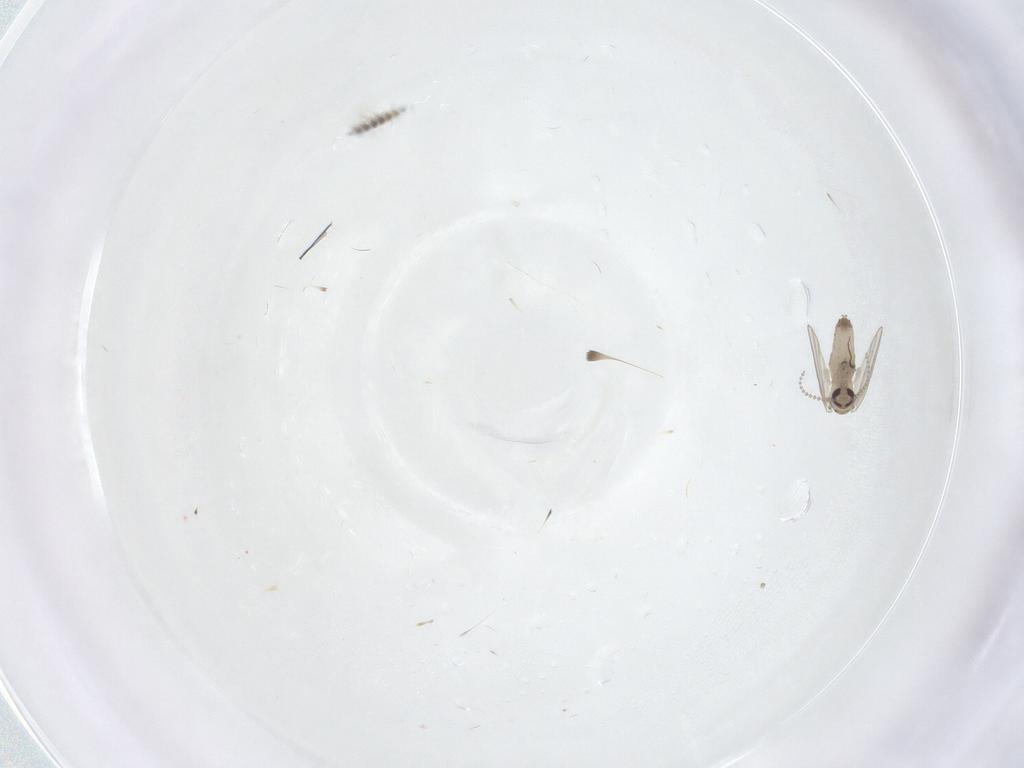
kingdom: Animalia
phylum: Arthropoda
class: Insecta
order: Diptera
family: Psychodidae
